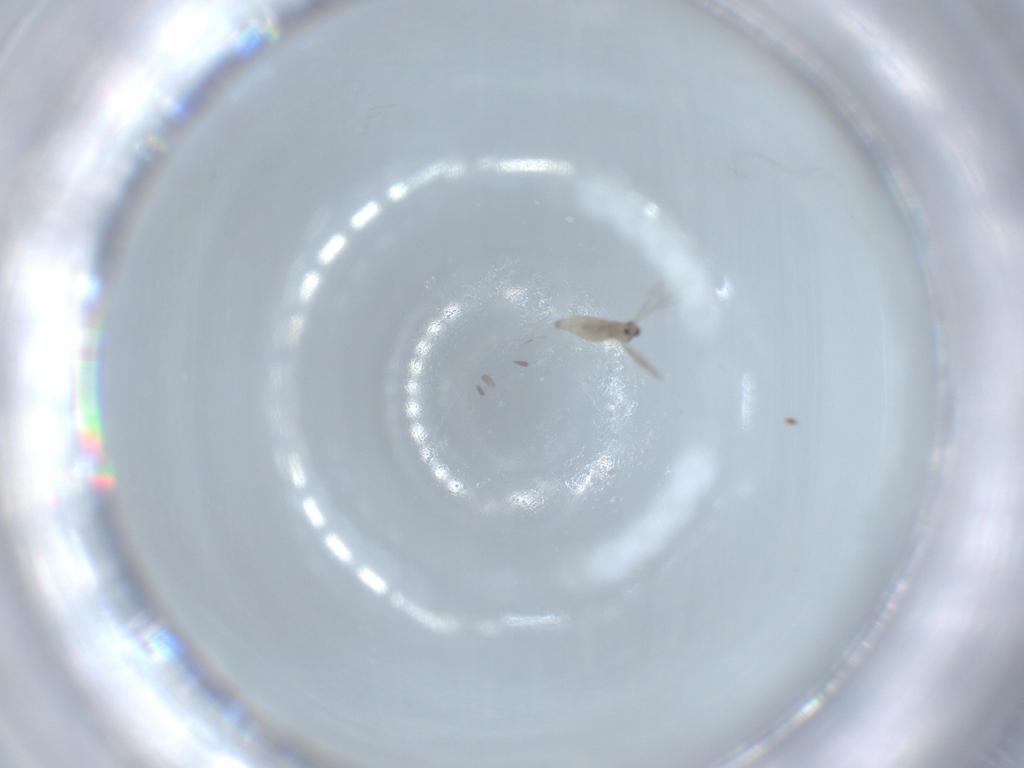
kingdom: Animalia
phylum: Arthropoda
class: Insecta
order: Diptera
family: Cecidomyiidae
